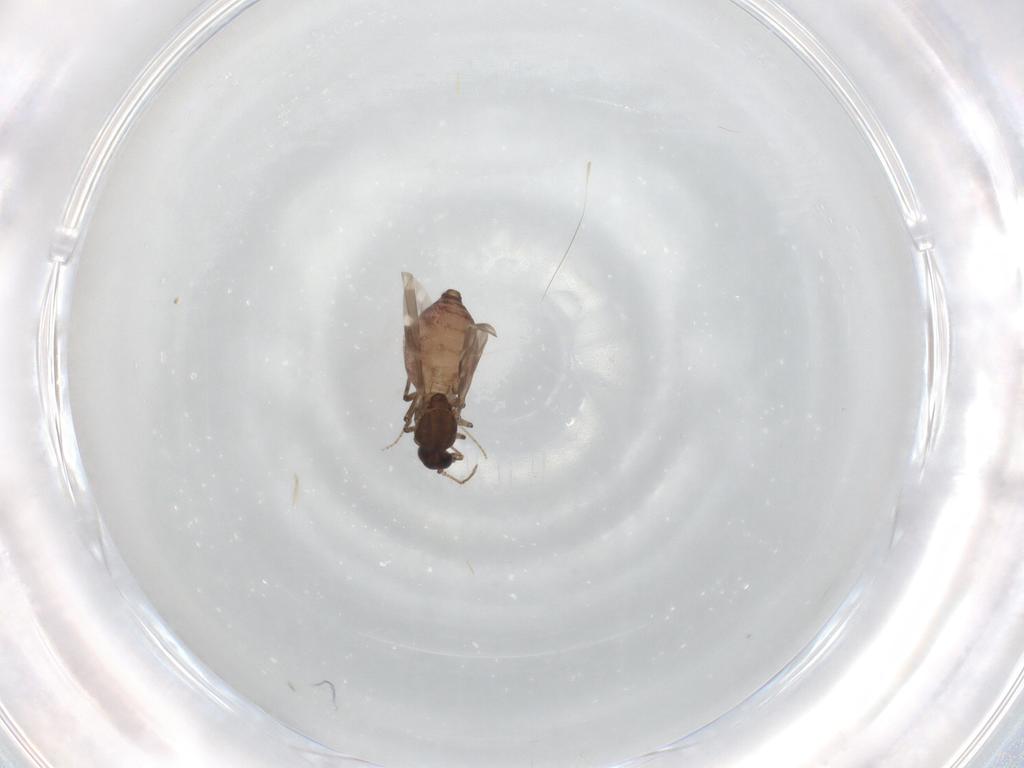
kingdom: Animalia
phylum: Arthropoda
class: Insecta
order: Diptera
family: Ceratopogonidae
